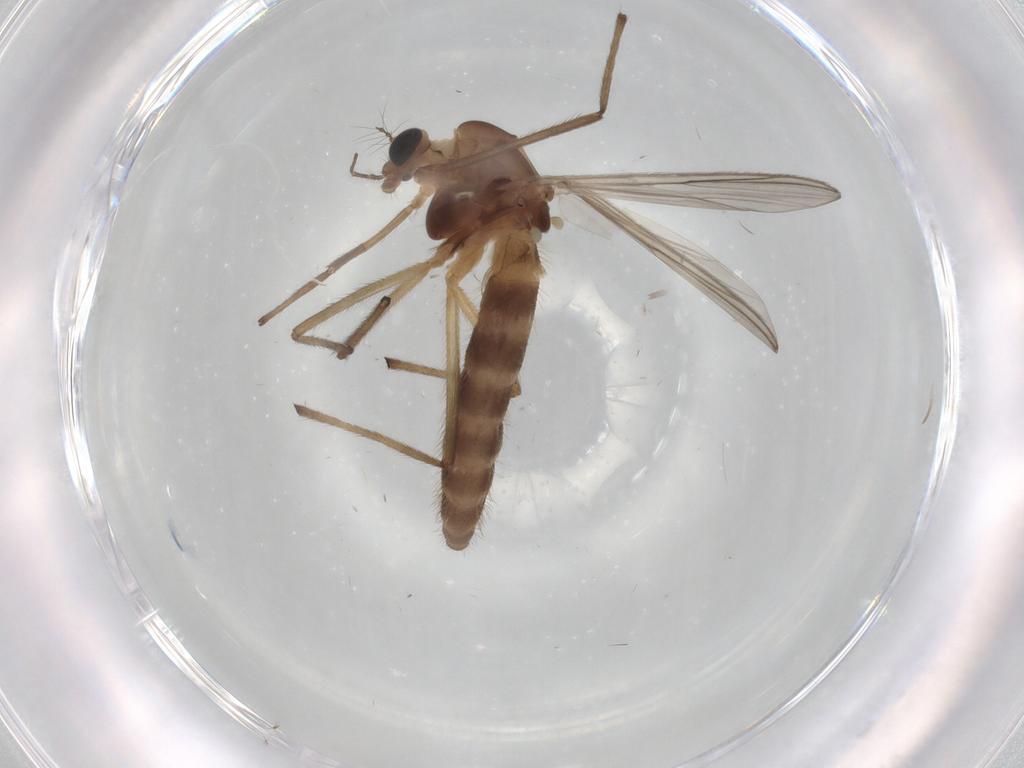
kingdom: Animalia
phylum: Arthropoda
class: Insecta
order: Diptera
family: Chironomidae
